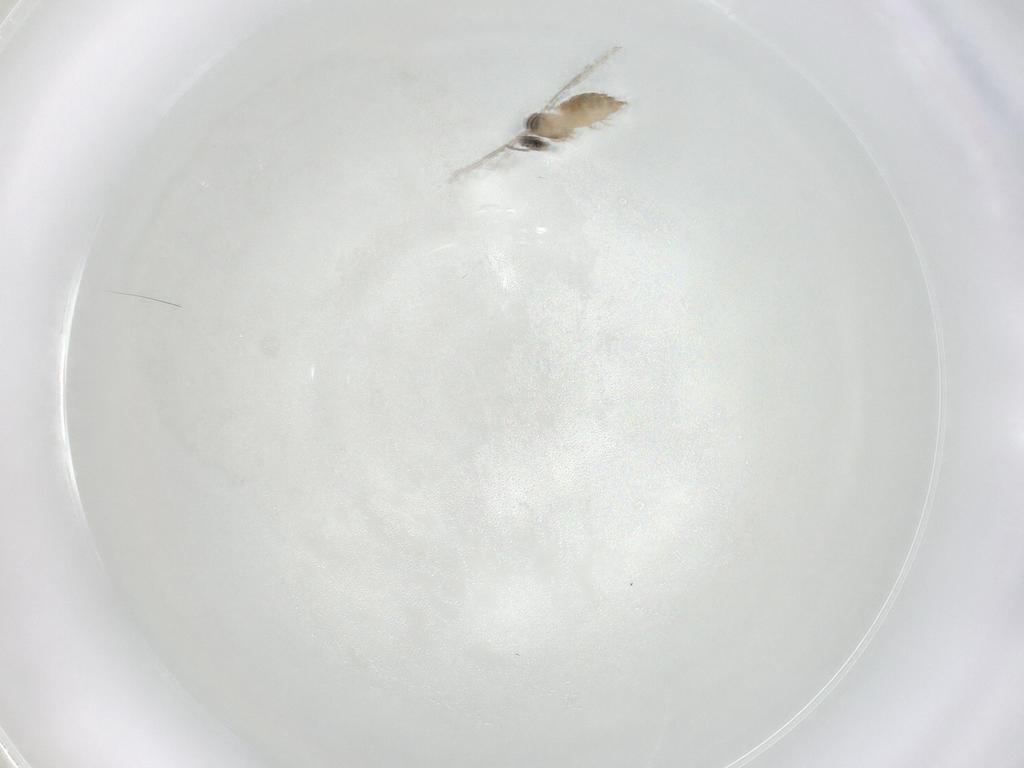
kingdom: Animalia
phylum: Arthropoda
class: Insecta
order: Diptera
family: Cecidomyiidae
